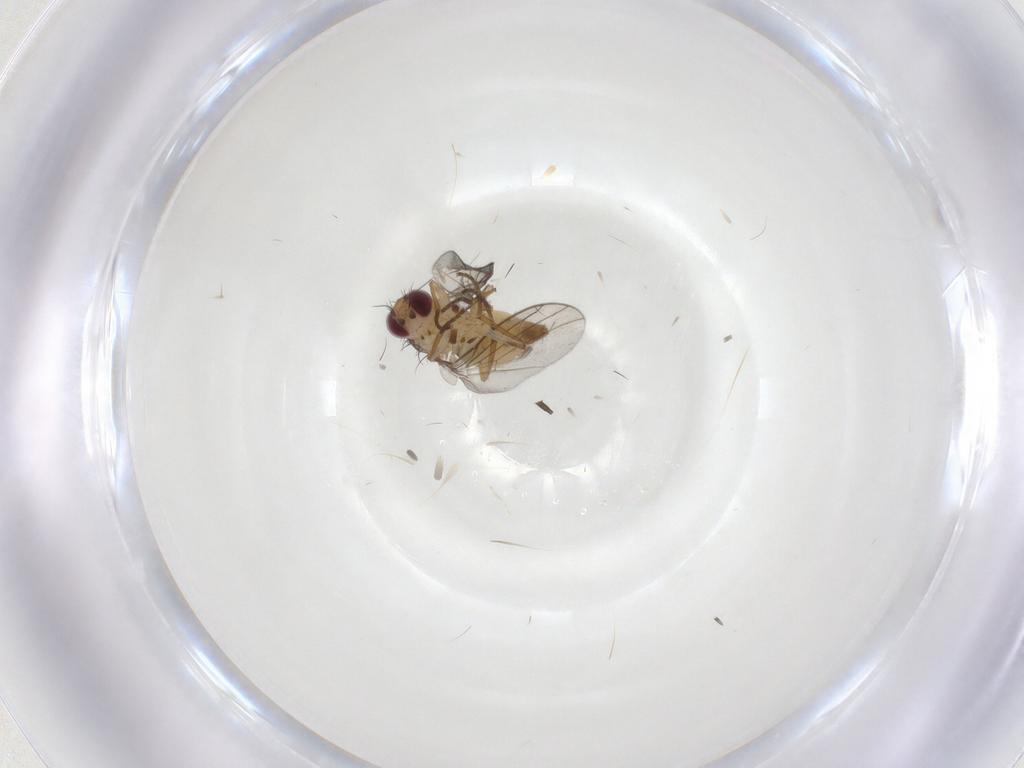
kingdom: Animalia
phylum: Arthropoda
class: Insecta
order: Diptera
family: Agromyzidae
